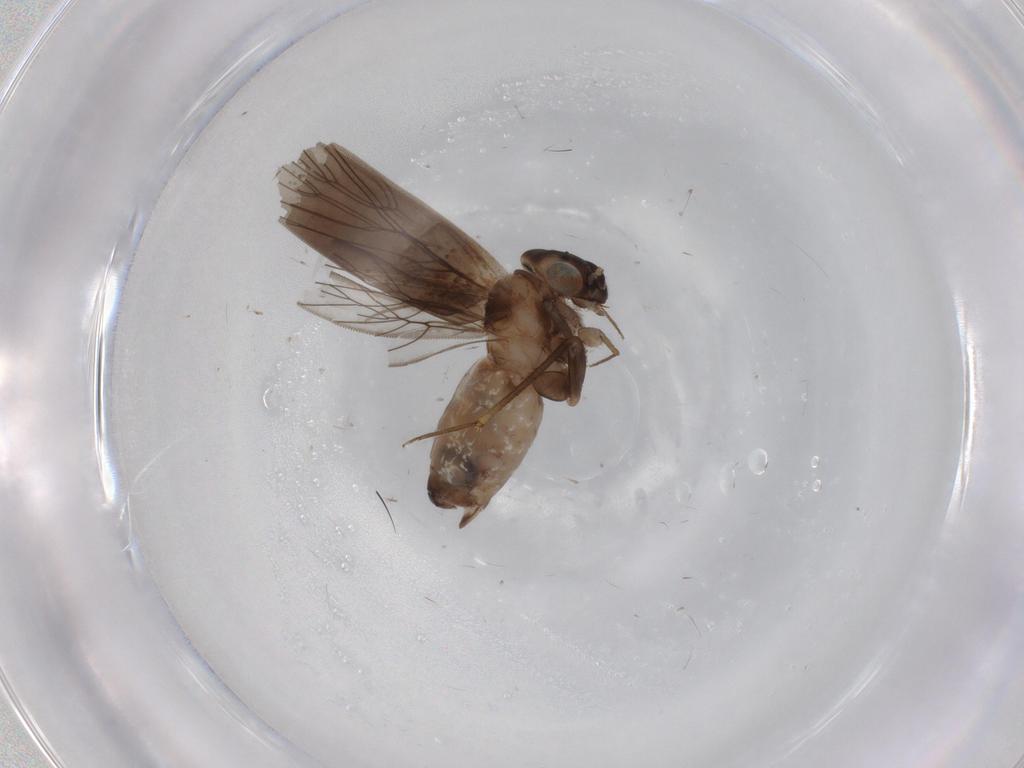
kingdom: Animalia
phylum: Arthropoda
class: Insecta
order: Psocodea
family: Lepidopsocidae
